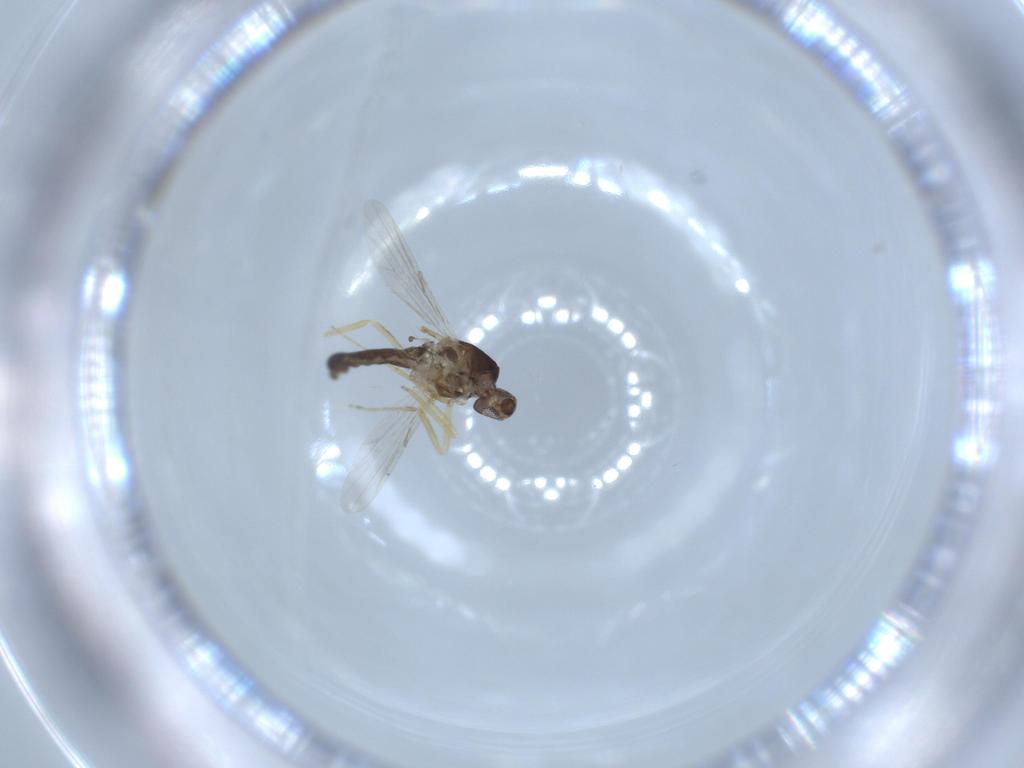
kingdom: Animalia
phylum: Arthropoda
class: Insecta
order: Diptera
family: Ceratopogonidae
